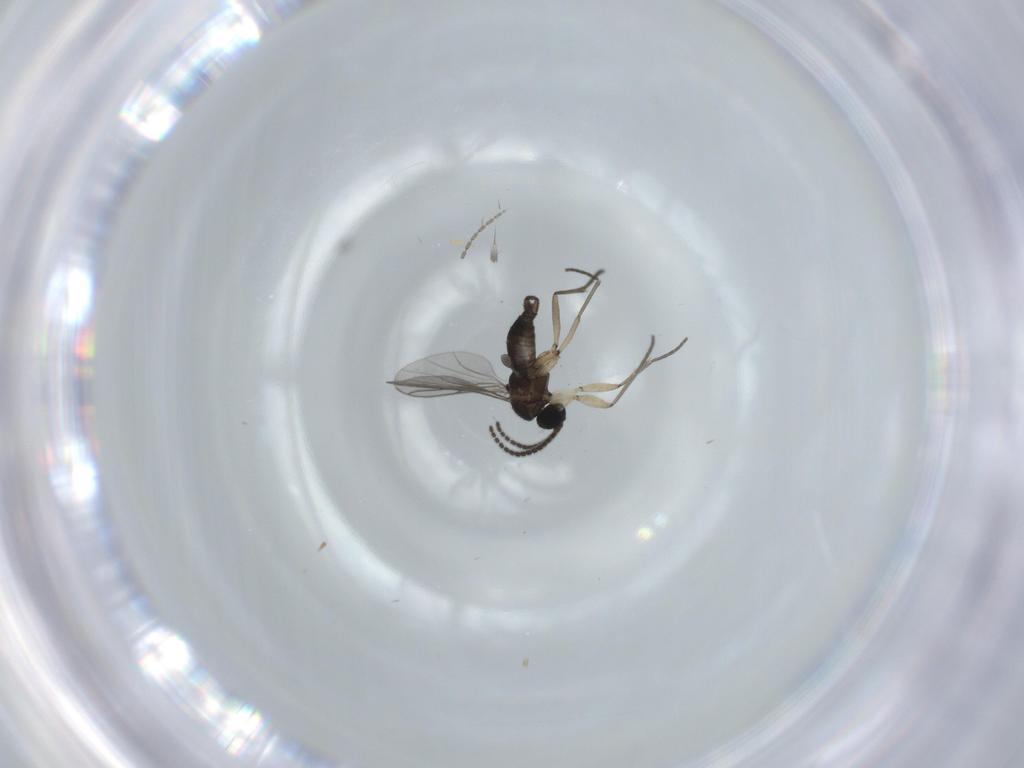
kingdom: Animalia
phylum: Arthropoda
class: Insecta
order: Diptera
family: Sciaridae
